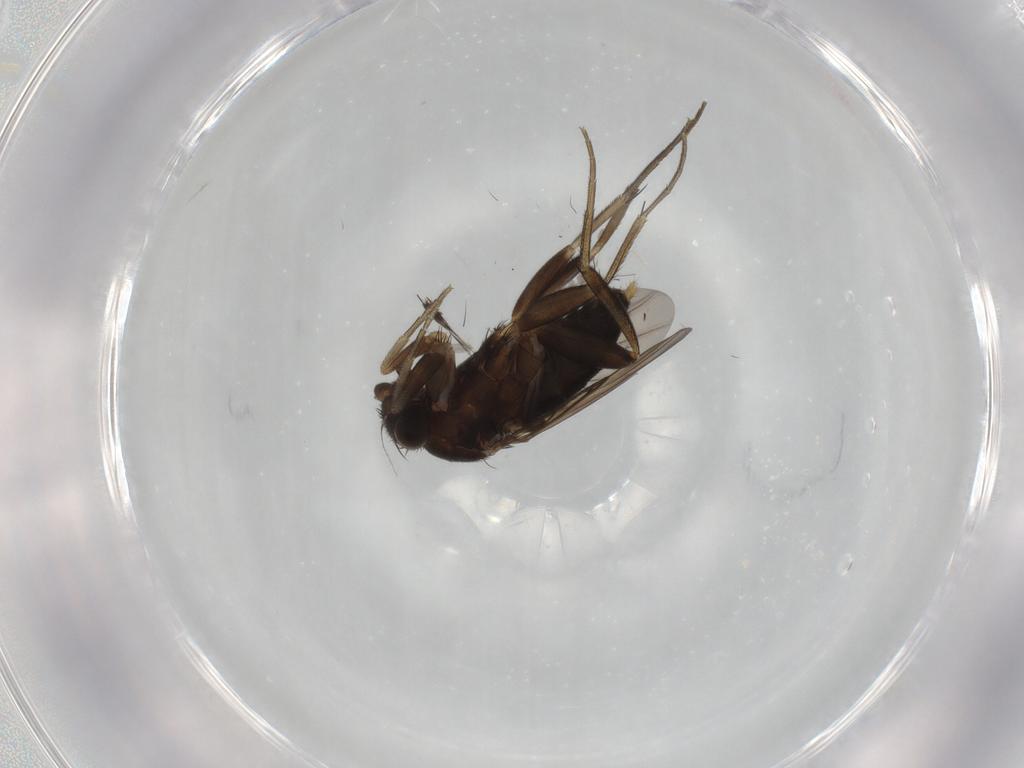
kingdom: Animalia
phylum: Arthropoda
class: Insecta
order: Diptera
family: Phoridae
